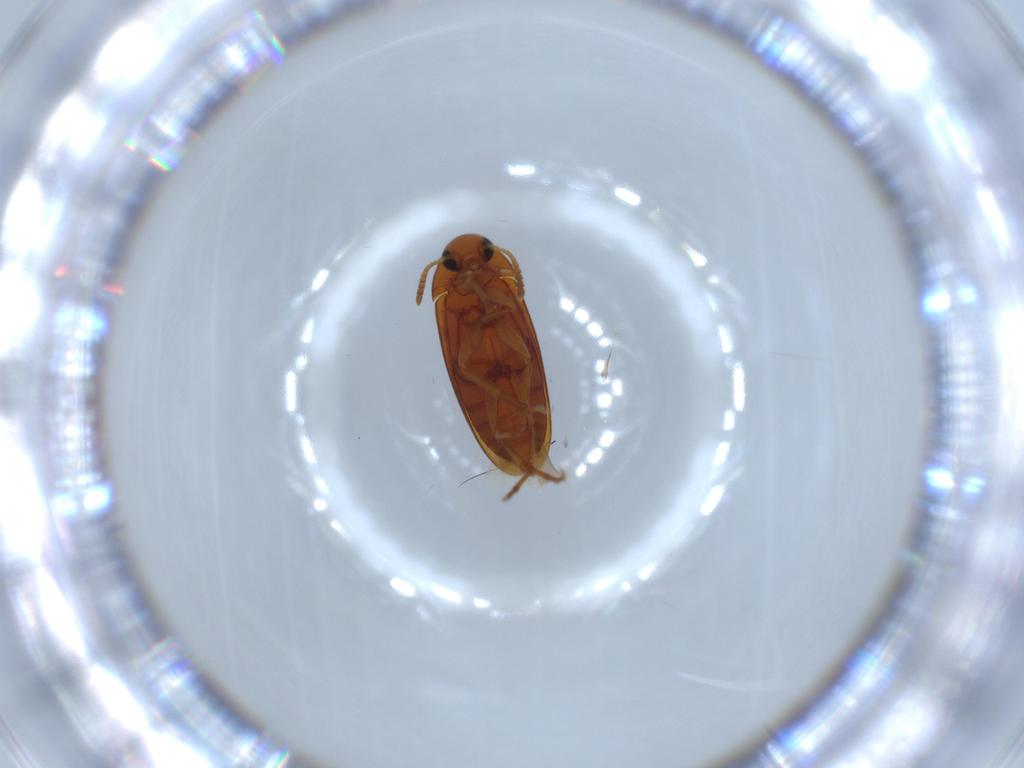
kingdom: Animalia
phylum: Arthropoda
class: Insecta
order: Coleoptera
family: Scraptiidae
